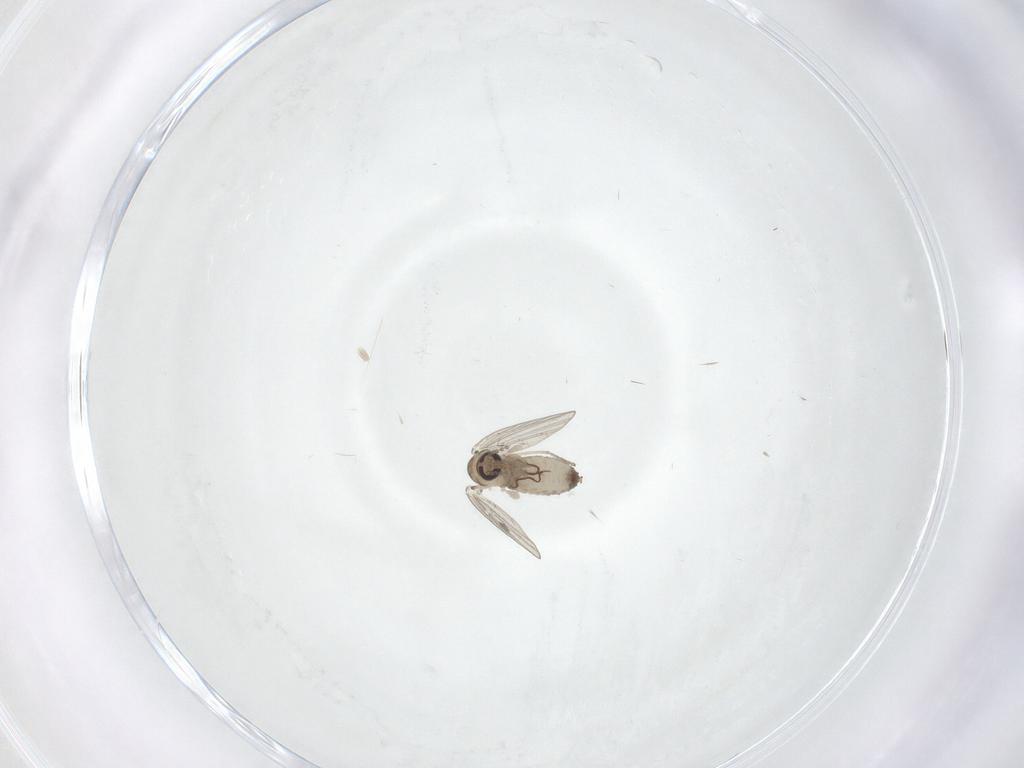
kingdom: Animalia
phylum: Arthropoda
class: Insecta
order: Diptera
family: Psychodidae
